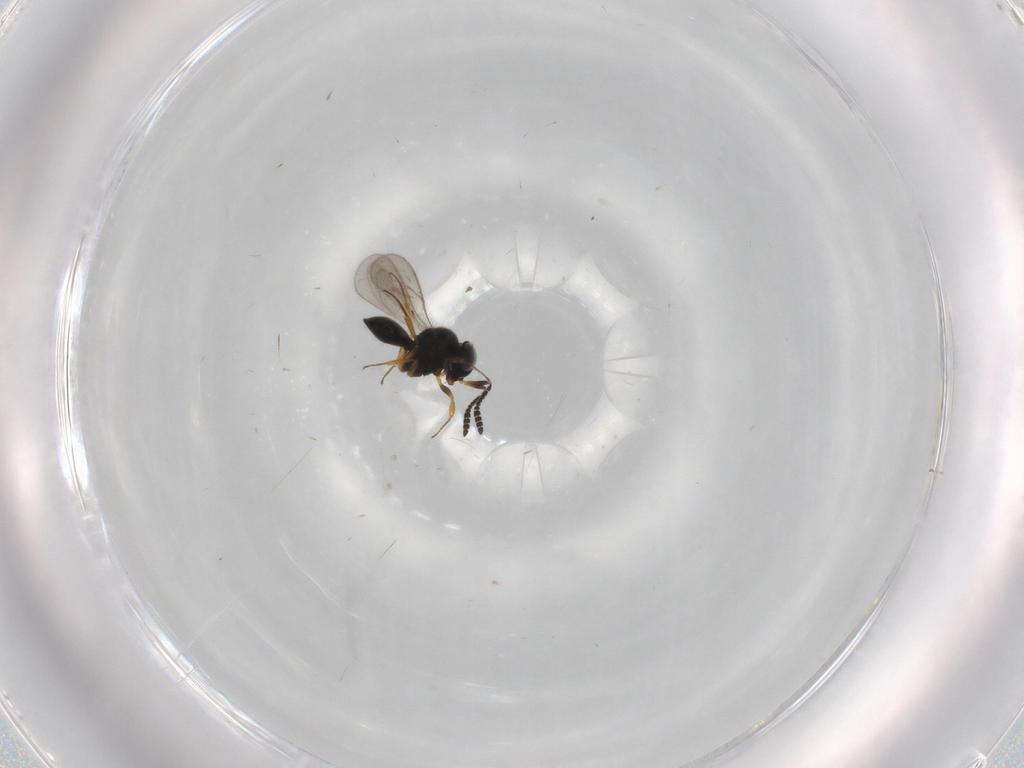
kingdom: Animalia
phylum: Arthropoda
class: Insecta
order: Hymenoptera
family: Scelionidae
